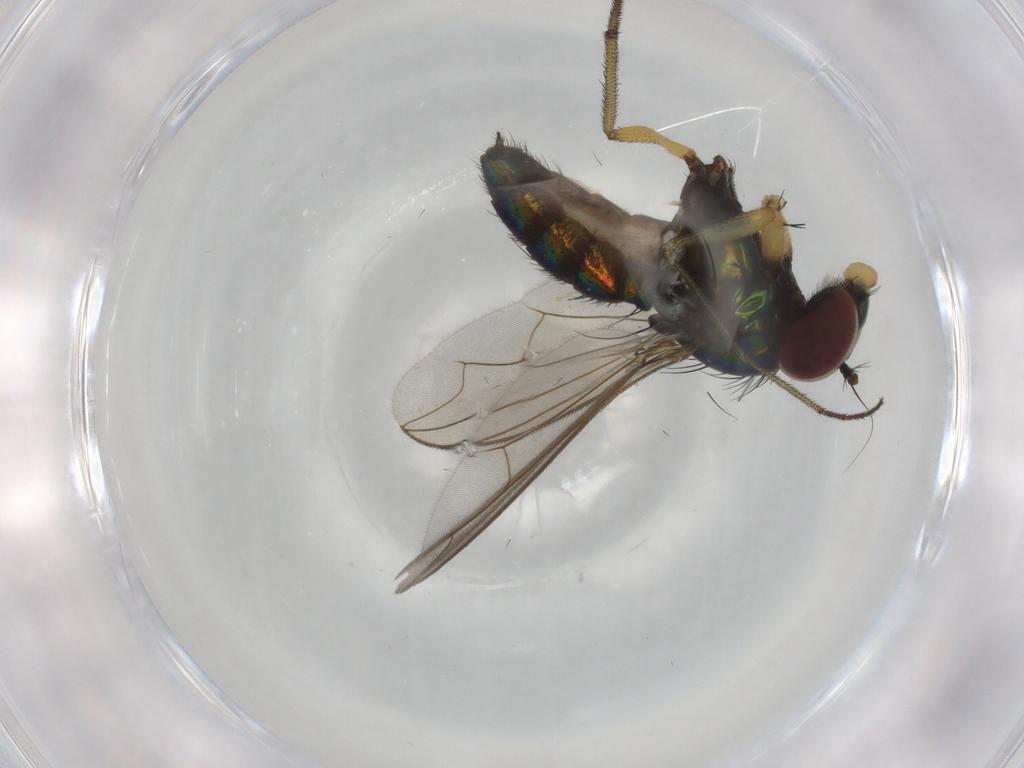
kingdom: Animalia
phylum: Arthropoda
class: Insecta
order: Diptera
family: Dolichopodidae
